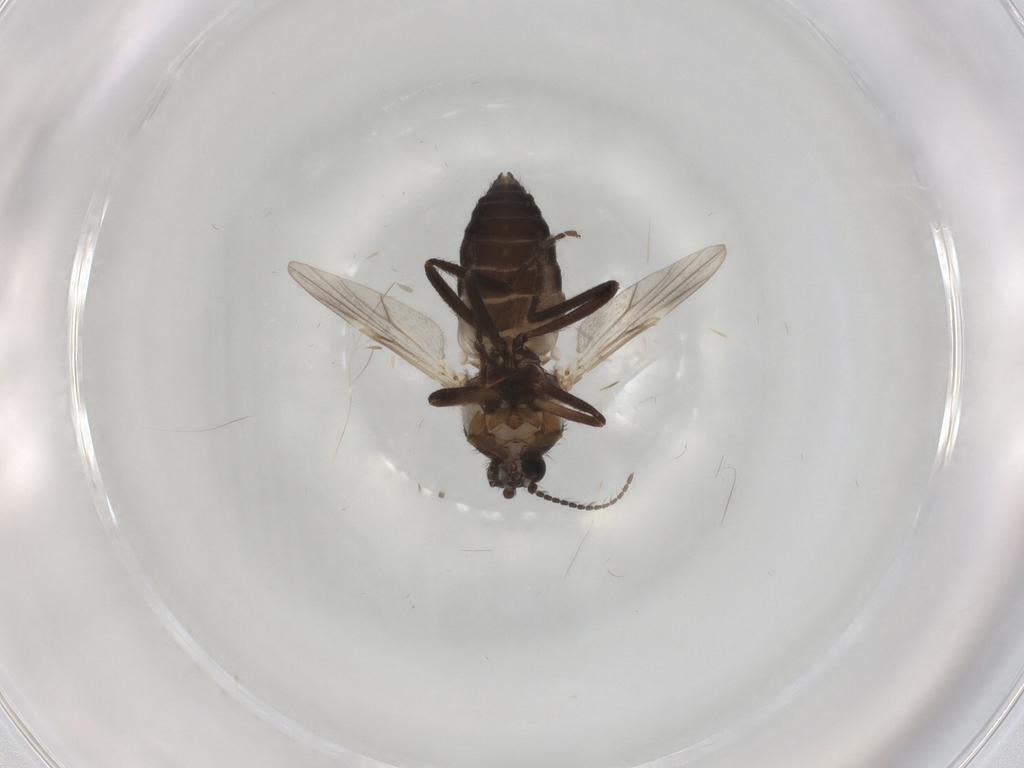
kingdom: Animalia
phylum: Arthropoda
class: Insecta
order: Diptera
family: Ceratopogonidae
